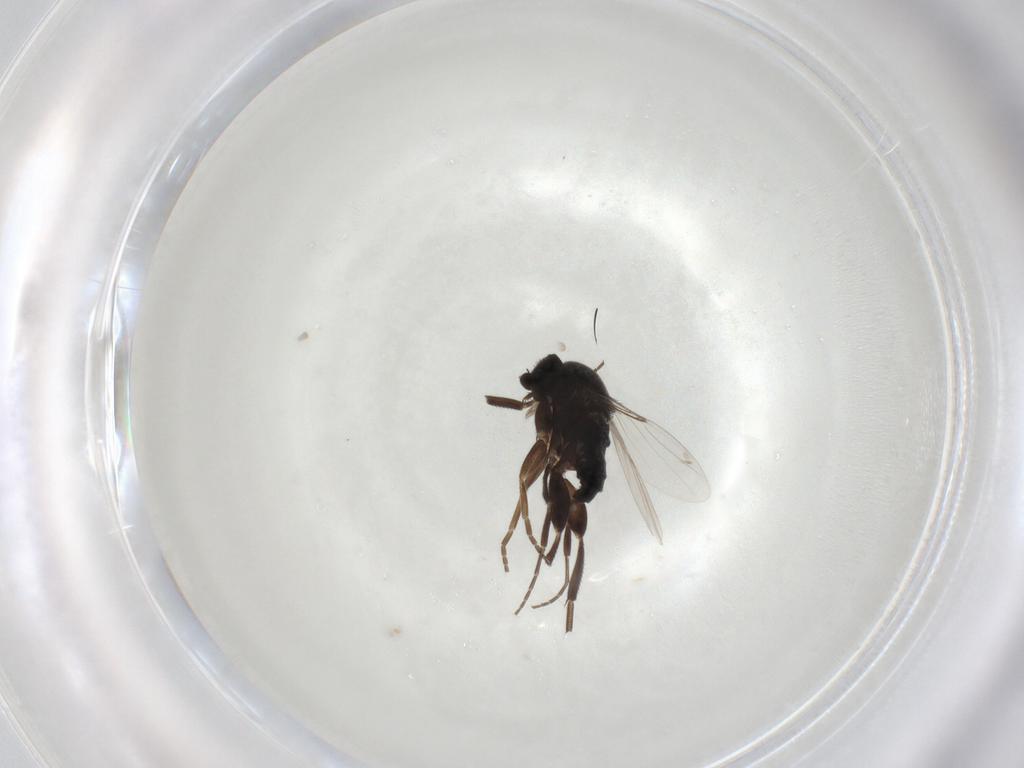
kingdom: Animalia
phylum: Arthropoda
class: Insecta
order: Diptera
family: Phoridae
